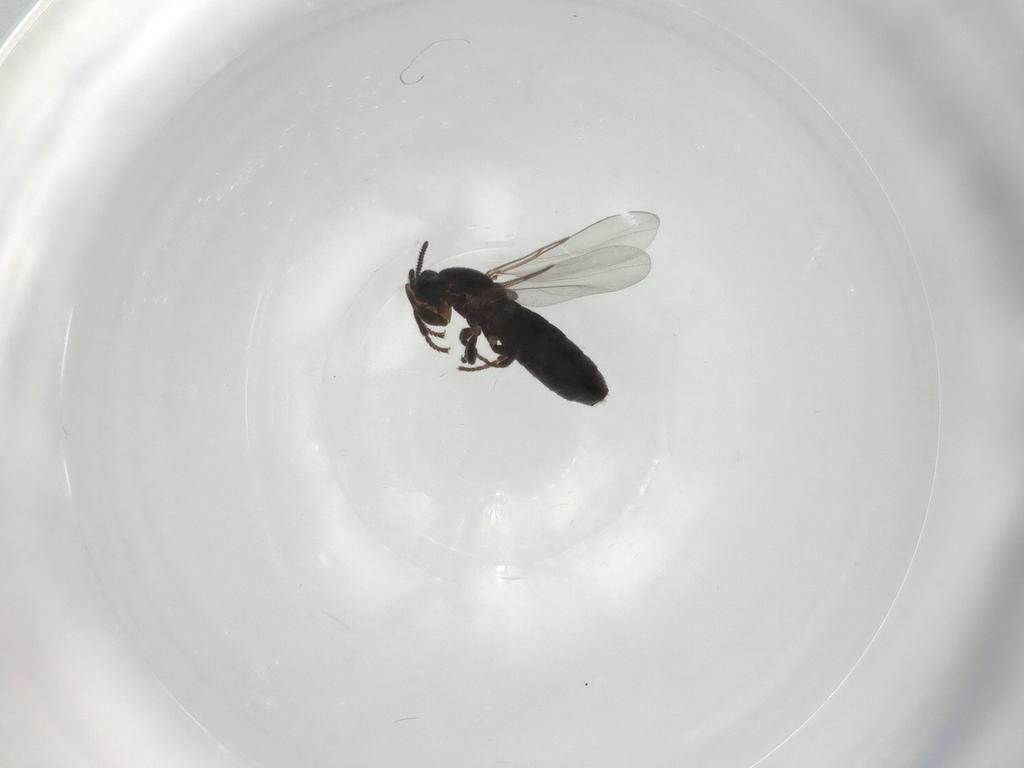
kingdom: Animalia
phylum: Arthropoda
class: Insecta
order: Diptera
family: Scatopsidae
